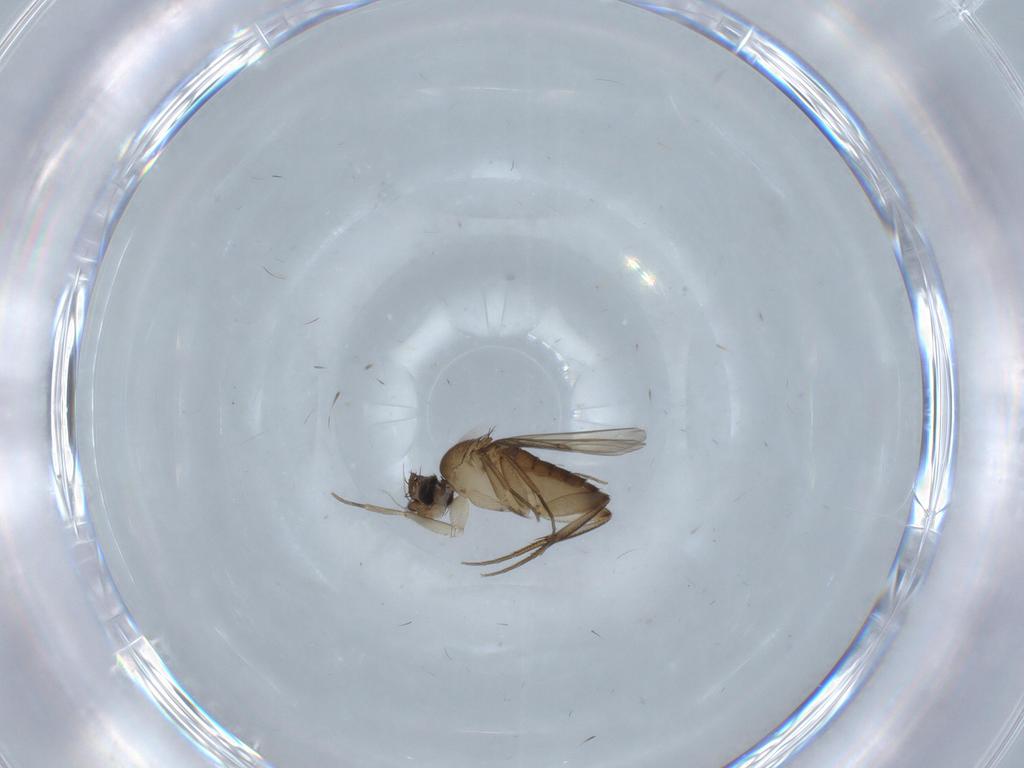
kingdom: Animalia
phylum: Arthropoda
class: Insecta
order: Diptera
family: Phoridae
